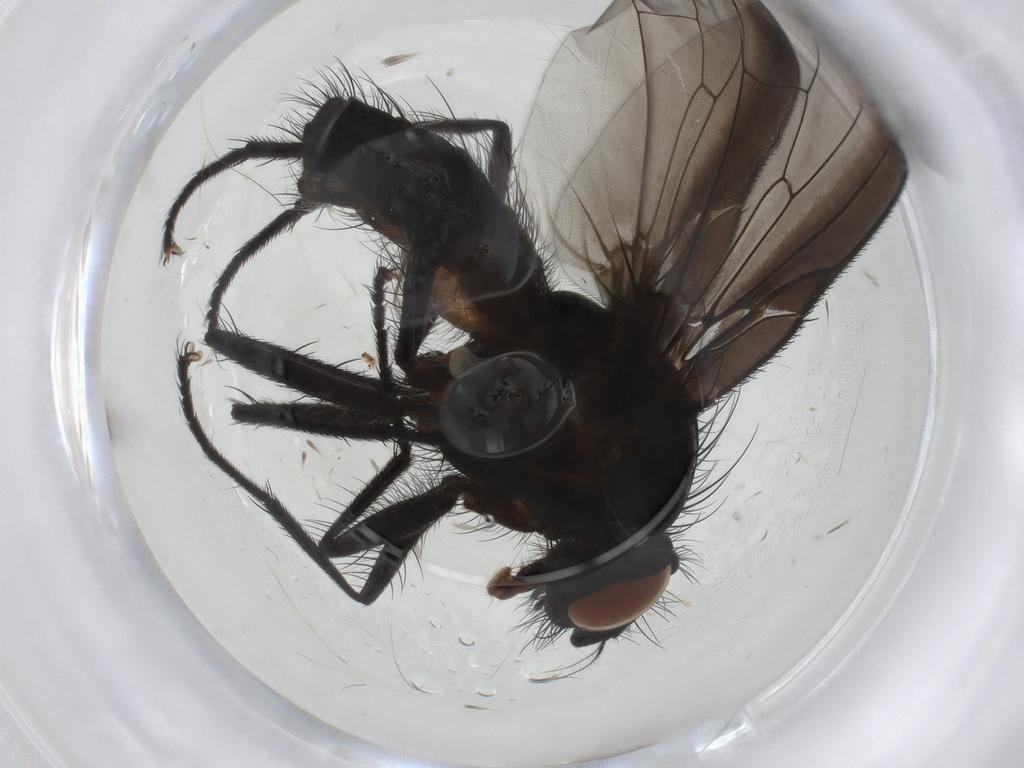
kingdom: Animalia
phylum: Arthropoda
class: Insecta
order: Diptera
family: Anthomyiidae
